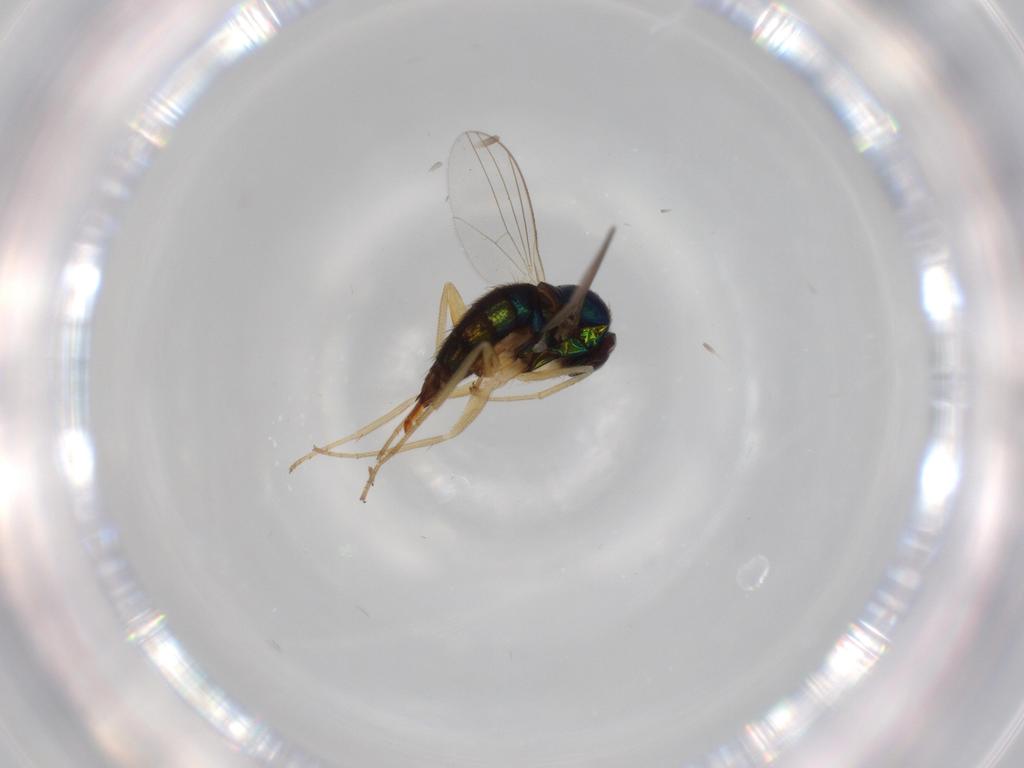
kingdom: Animalia
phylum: Arthropoda
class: Insecta
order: Diptera
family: Dolichopodidae
